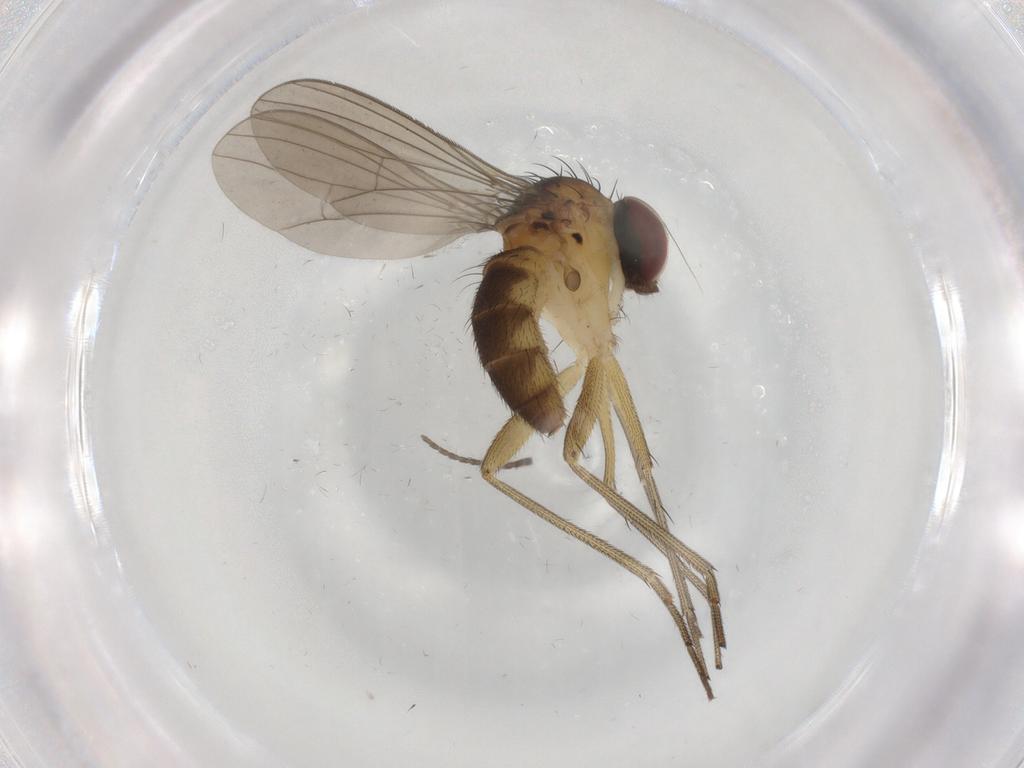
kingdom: Animalia
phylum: Arthropoda
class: Insecta
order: Diptera
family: Dolichopodidae
